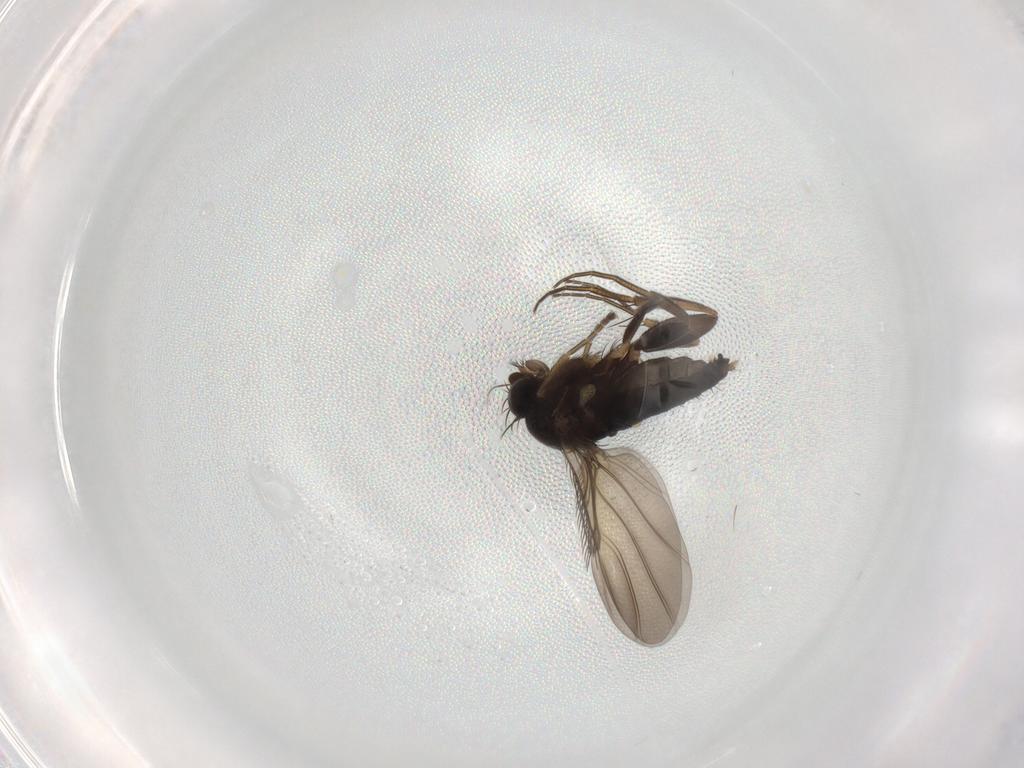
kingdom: Animalia
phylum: Arthropoda
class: Insecta
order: Diptera
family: Phoridae
